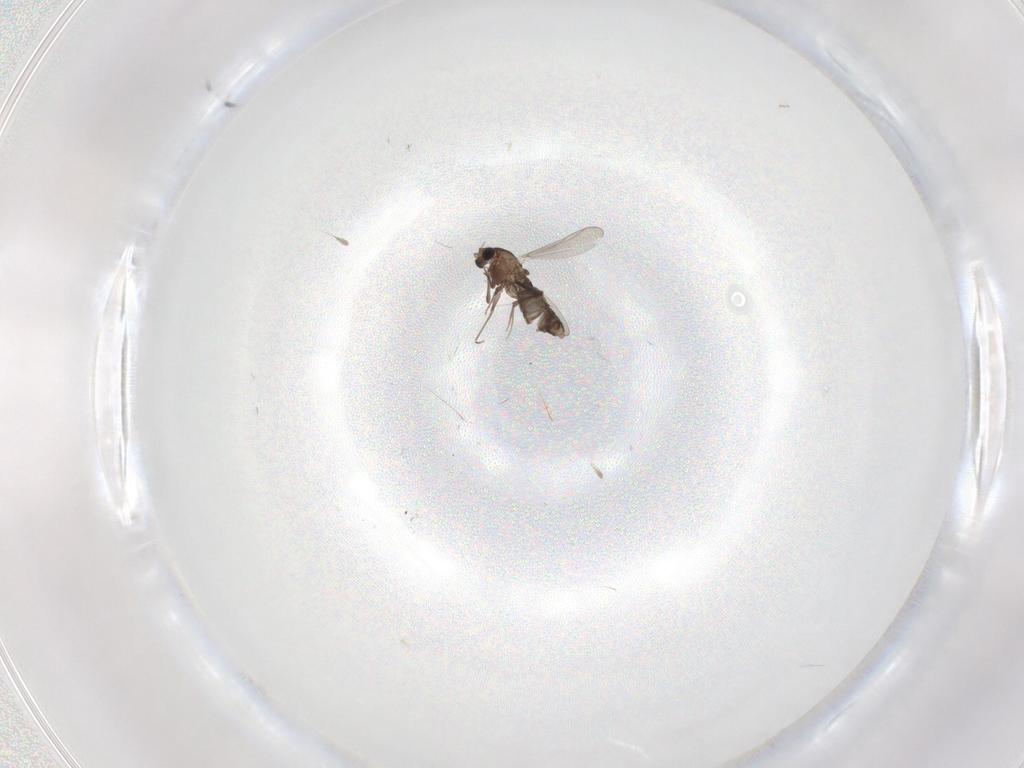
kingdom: Animalia
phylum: Arthropoda
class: Insecta
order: Diptera
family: Chironomidae
